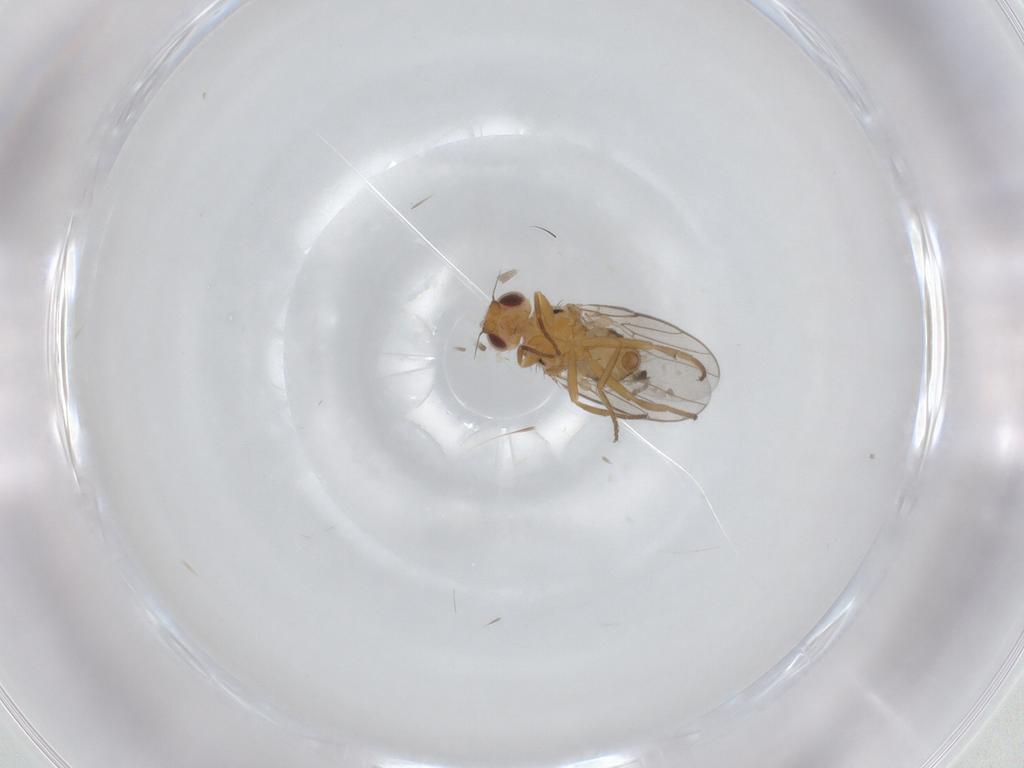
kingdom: Animalia
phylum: Arthropoda
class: Insecta
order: Diptera
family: Chloropidae
